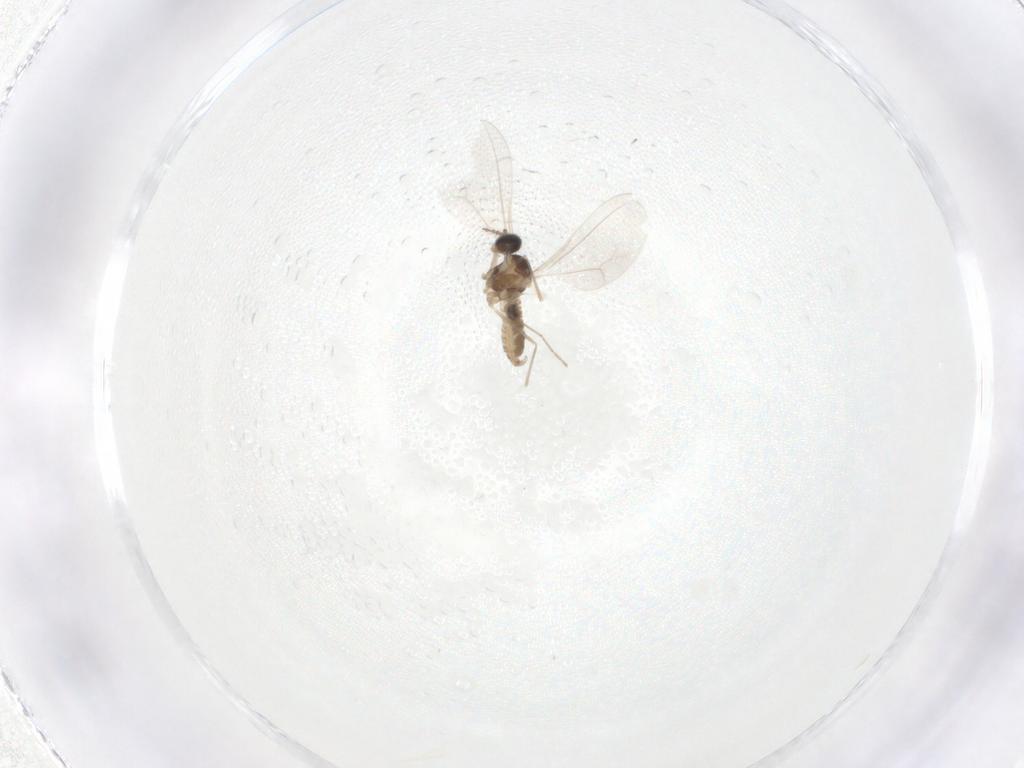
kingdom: Animalia
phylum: Arthropoda
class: Insecta
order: Diptera
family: Cecidomyiidae
